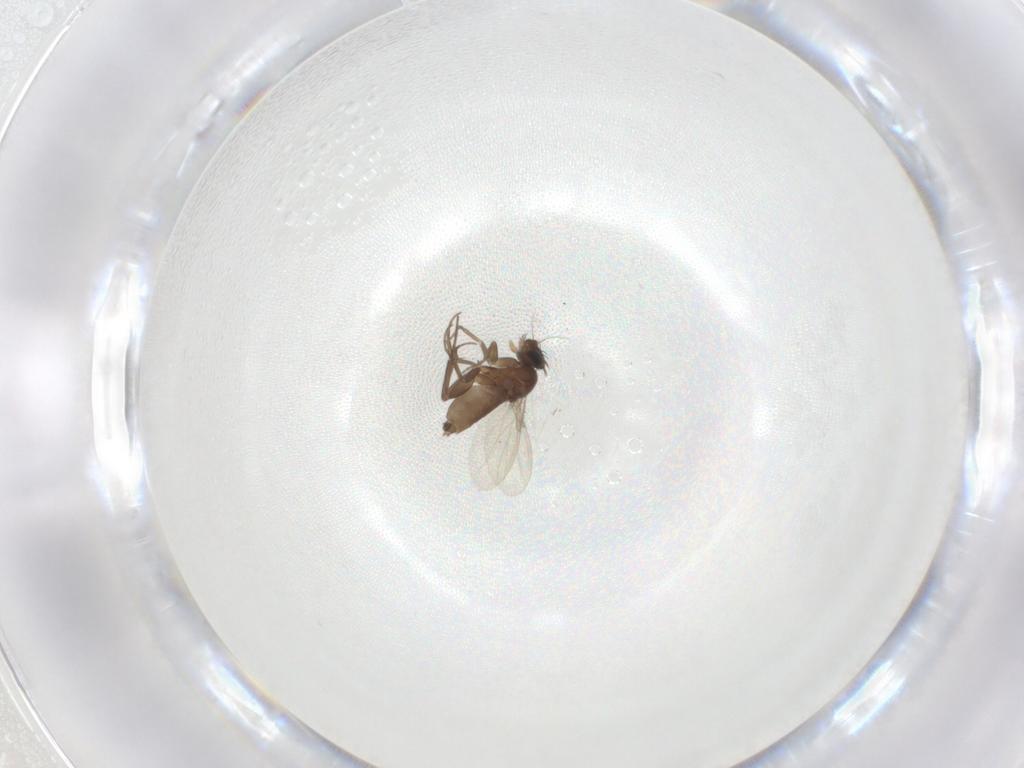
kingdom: Animalia
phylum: Arthropoda
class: Insecta
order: Diptera
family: Phoridae
